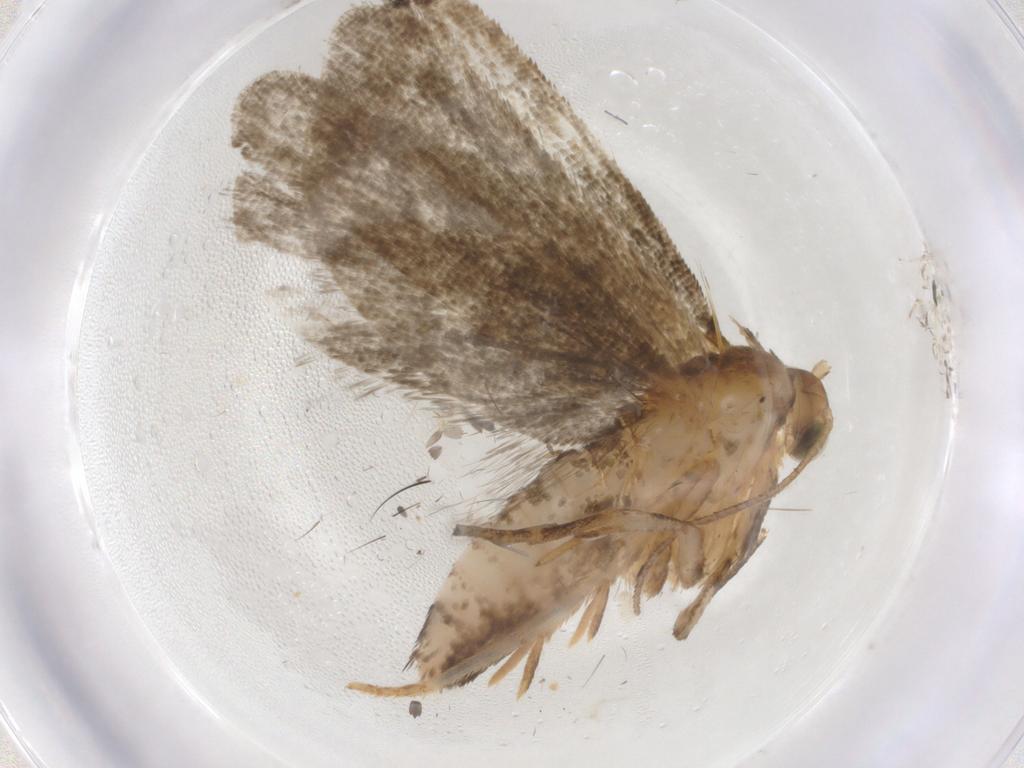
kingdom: Animalia
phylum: Arthropoda
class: Insecta
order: Lepidoptera
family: Tortricidae
